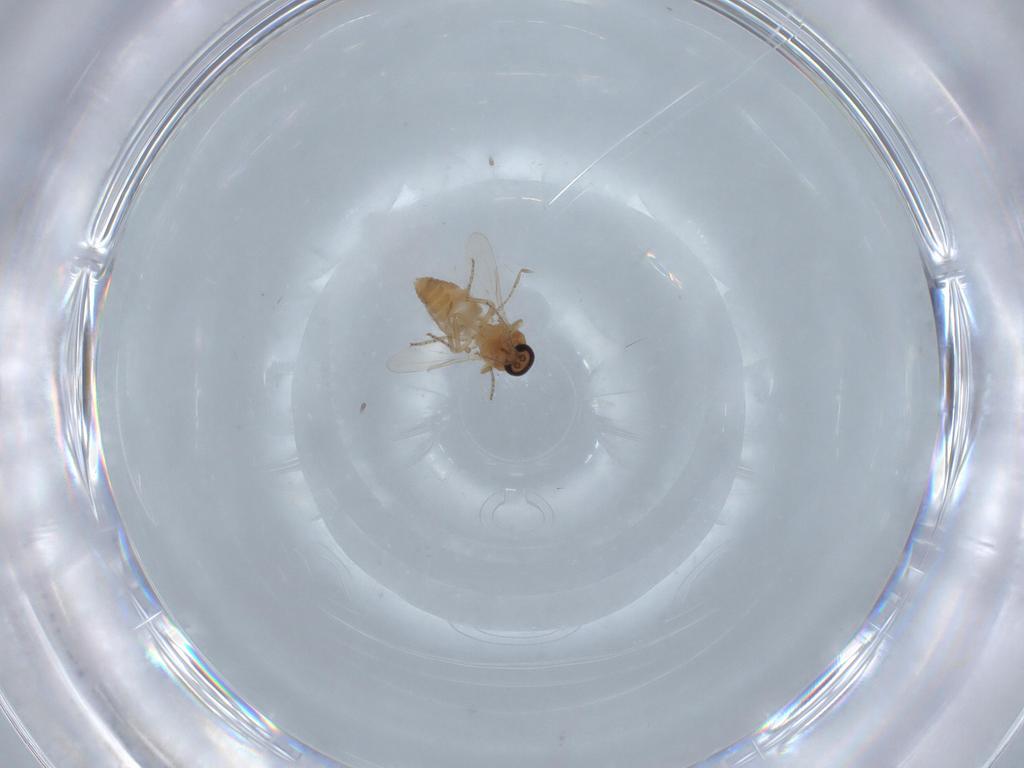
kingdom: Animalia
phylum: Arthropoda
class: Insecta
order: Diptera
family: Ceratopogonidae
